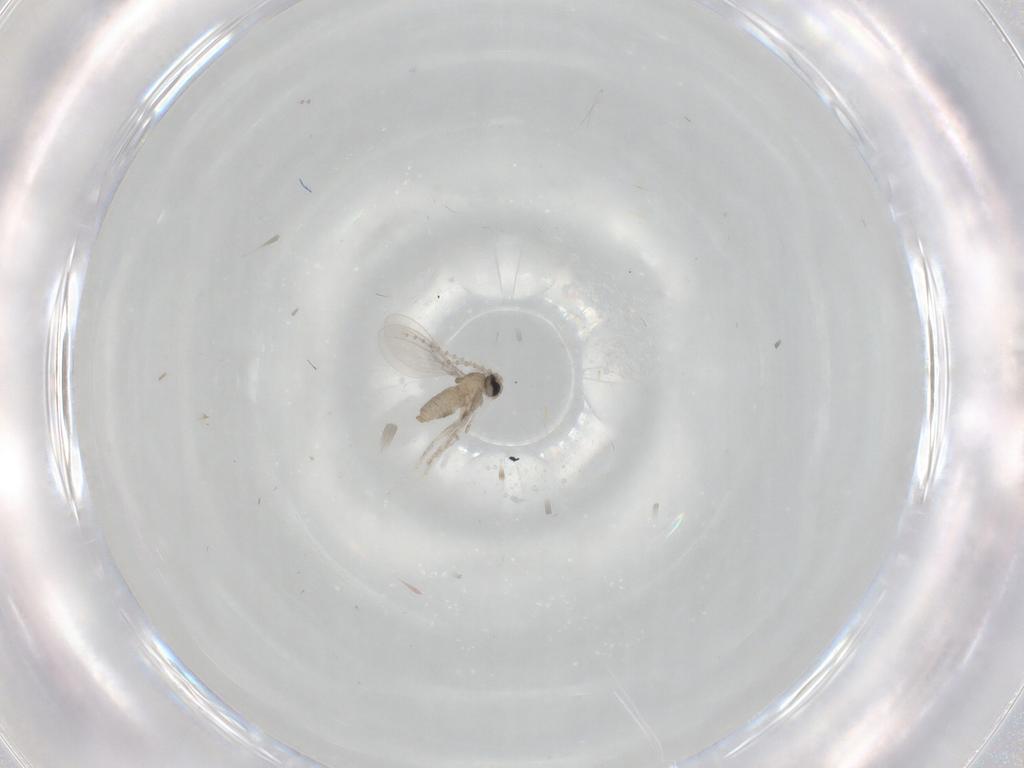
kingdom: Animalia
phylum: Arthropoda
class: Insecta
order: Diptera
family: Cecidomyiidae
